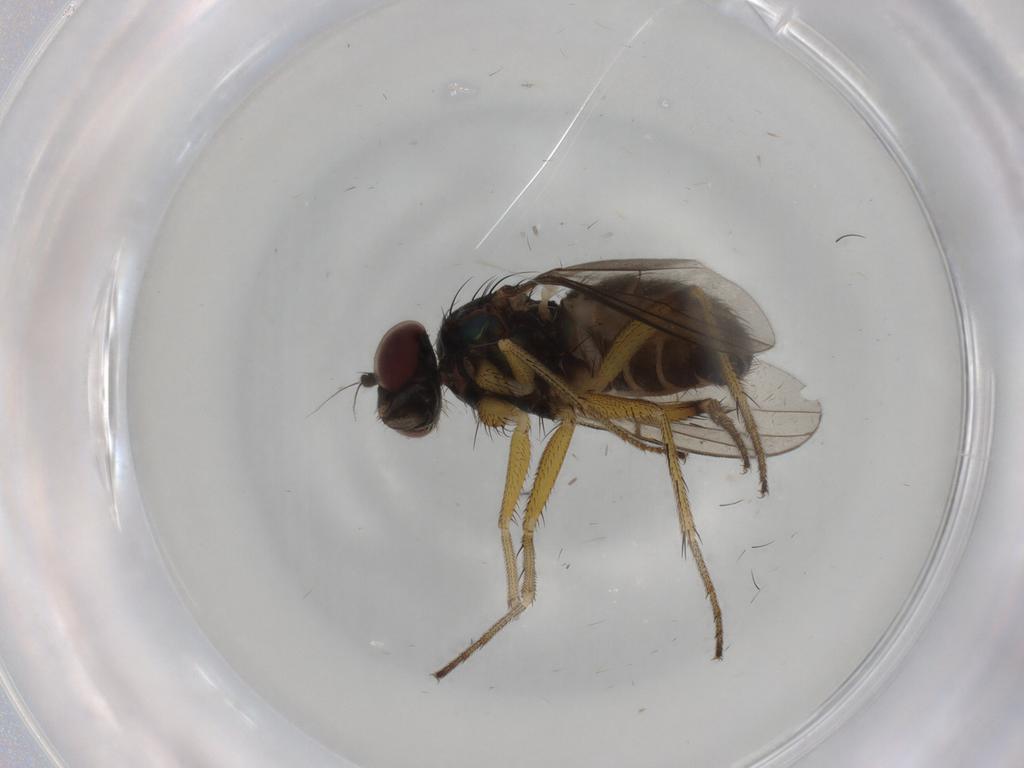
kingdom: Animalia
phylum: Arthropoda
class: Insecta
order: Diptera
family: Dolichopodidae
